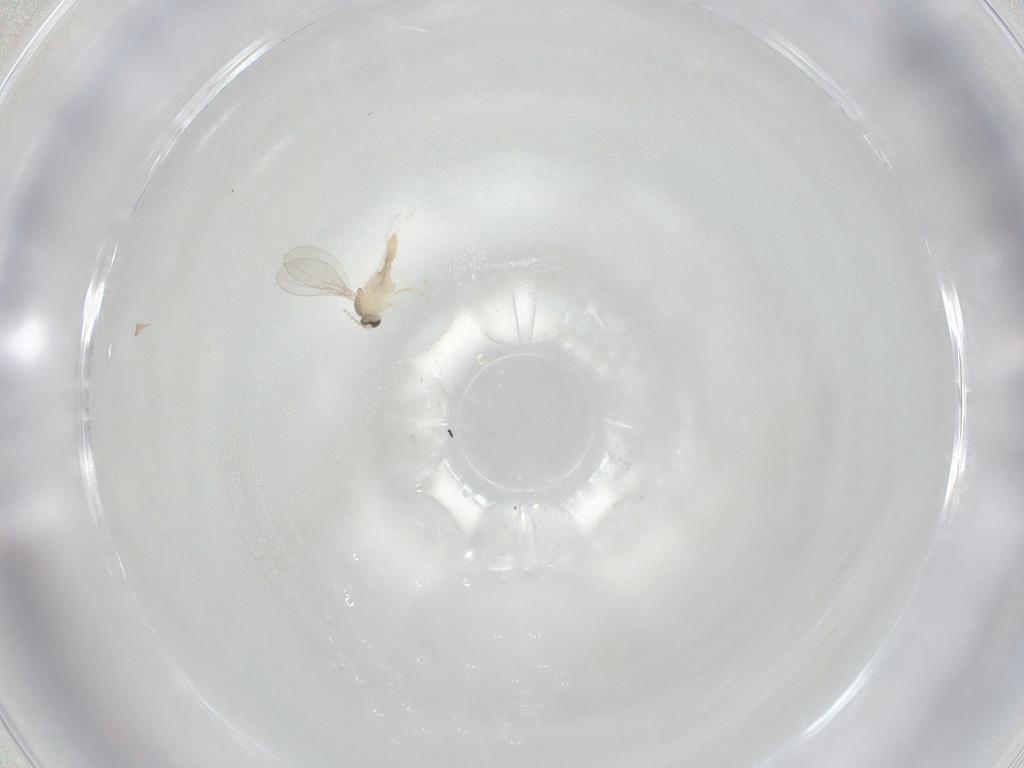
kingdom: Animalia
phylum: Arthropoda
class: Insecta
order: Diptera
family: Cecidomyiidae
